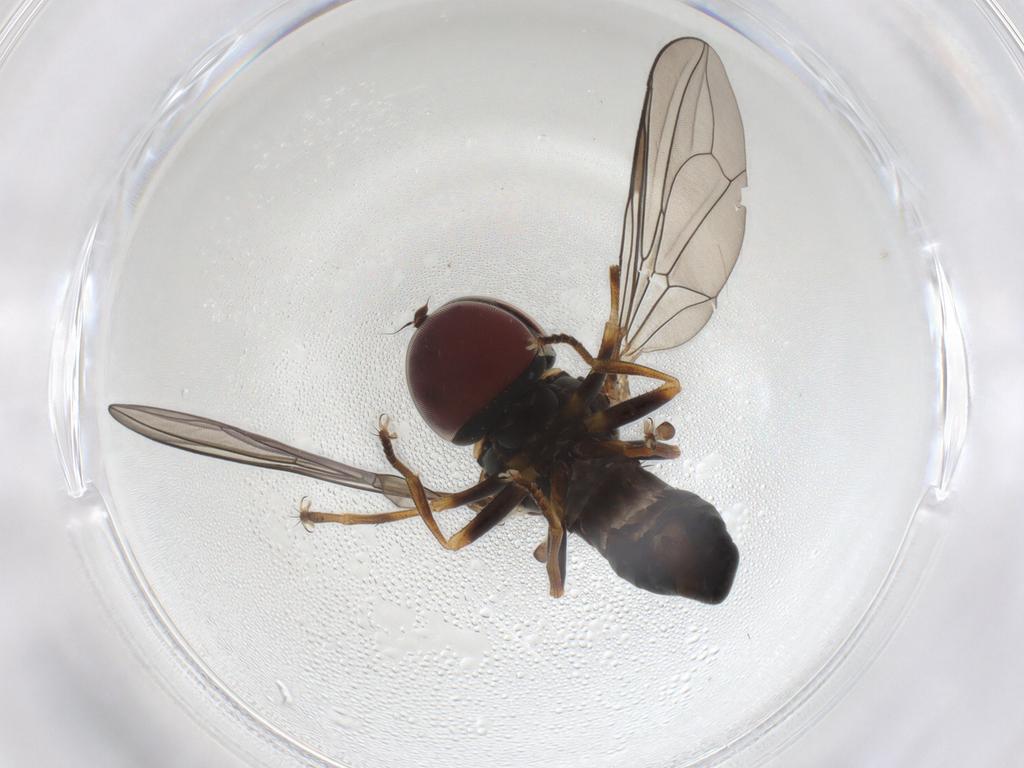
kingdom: Animalia
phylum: Arthropoda
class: Insecta
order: Diptera
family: Pipunculidae
